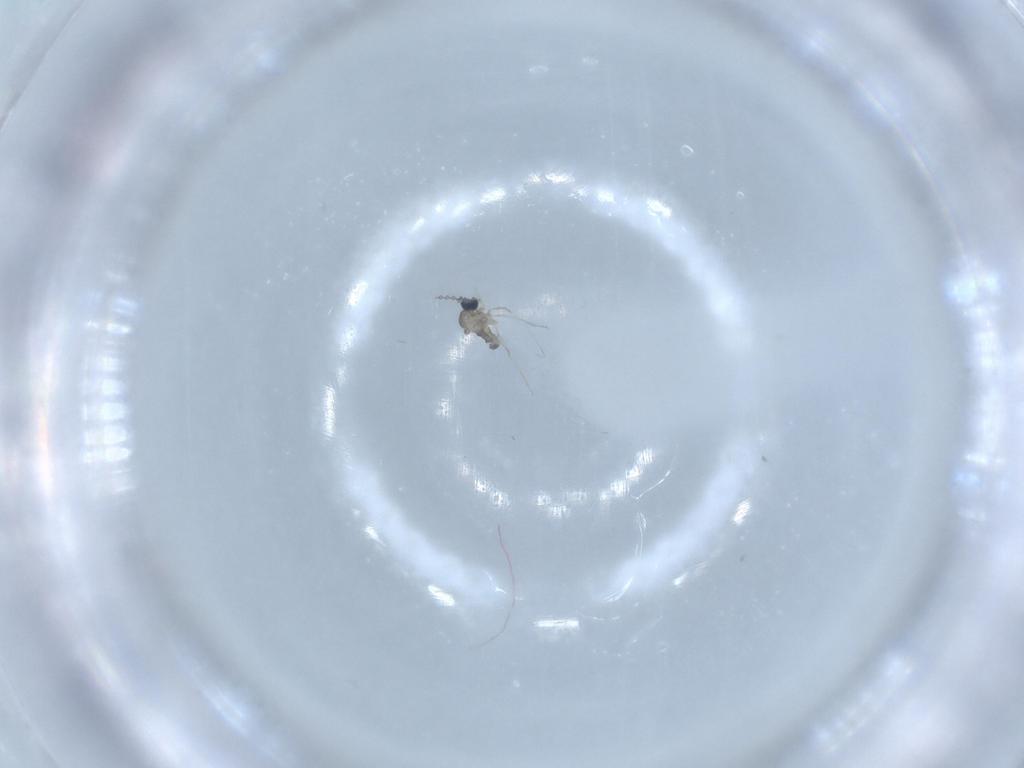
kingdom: Animalia
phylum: Arthropoda
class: Insecta
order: Diptera
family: Cecidomyiidae
